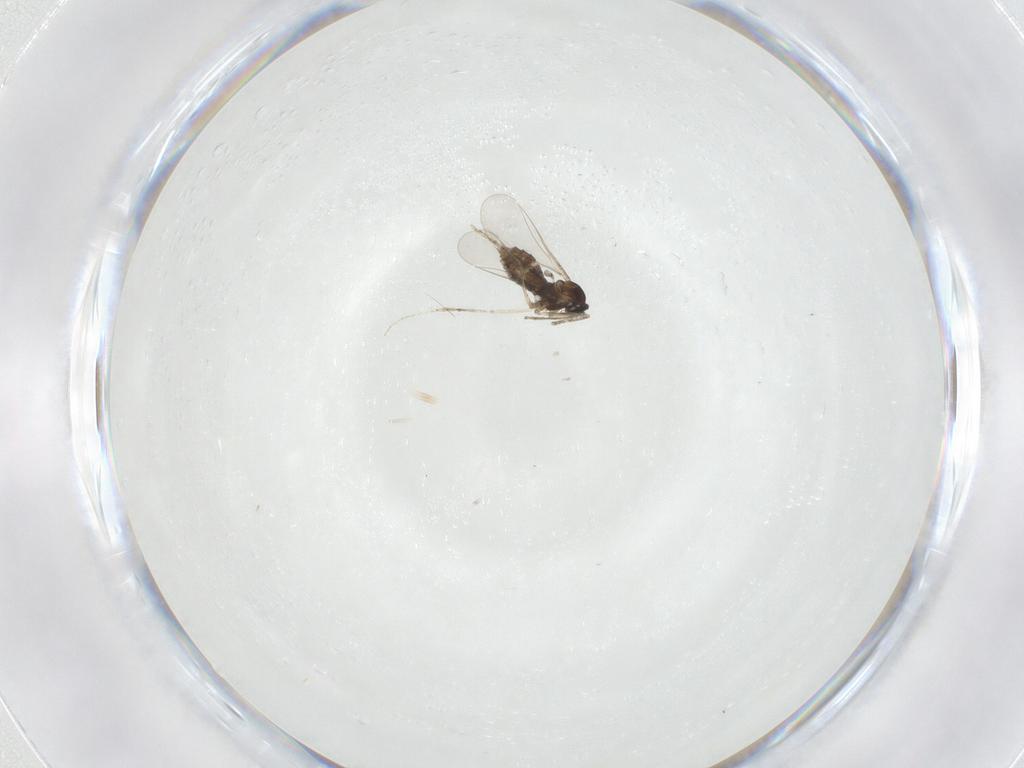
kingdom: Animalia
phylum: Arthropoda
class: Insecta
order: Diptera
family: Cecidomyiidae
